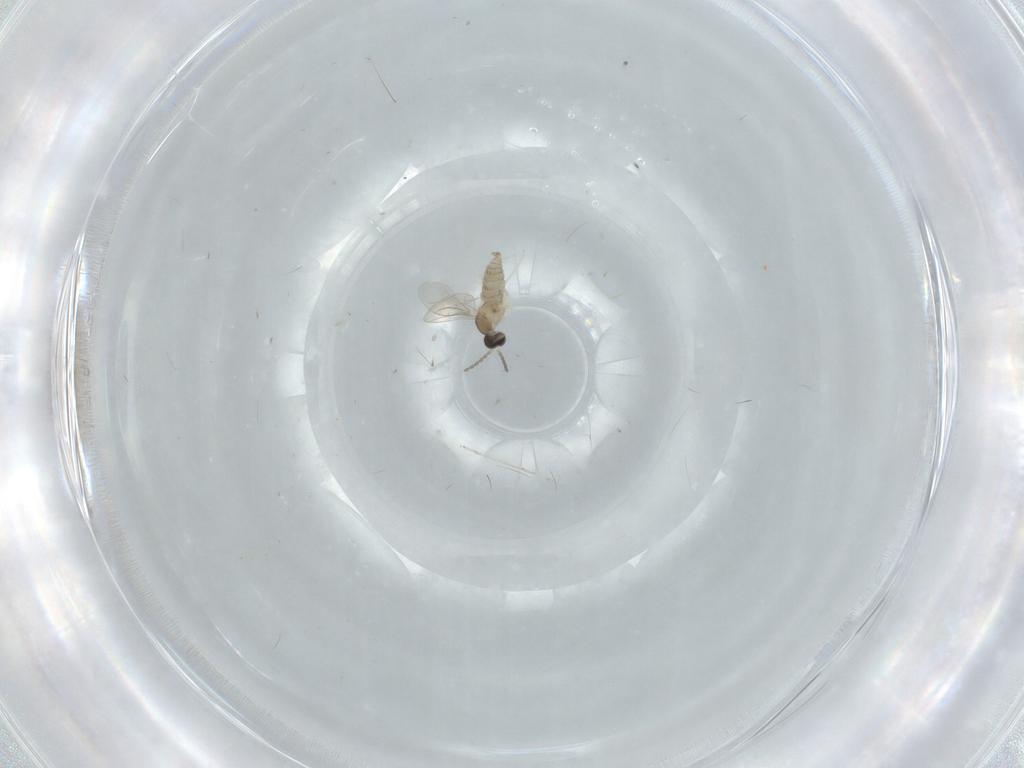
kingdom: Animalia
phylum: Arthropoda
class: Insecta
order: Diptera
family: Cecidomyiidae
